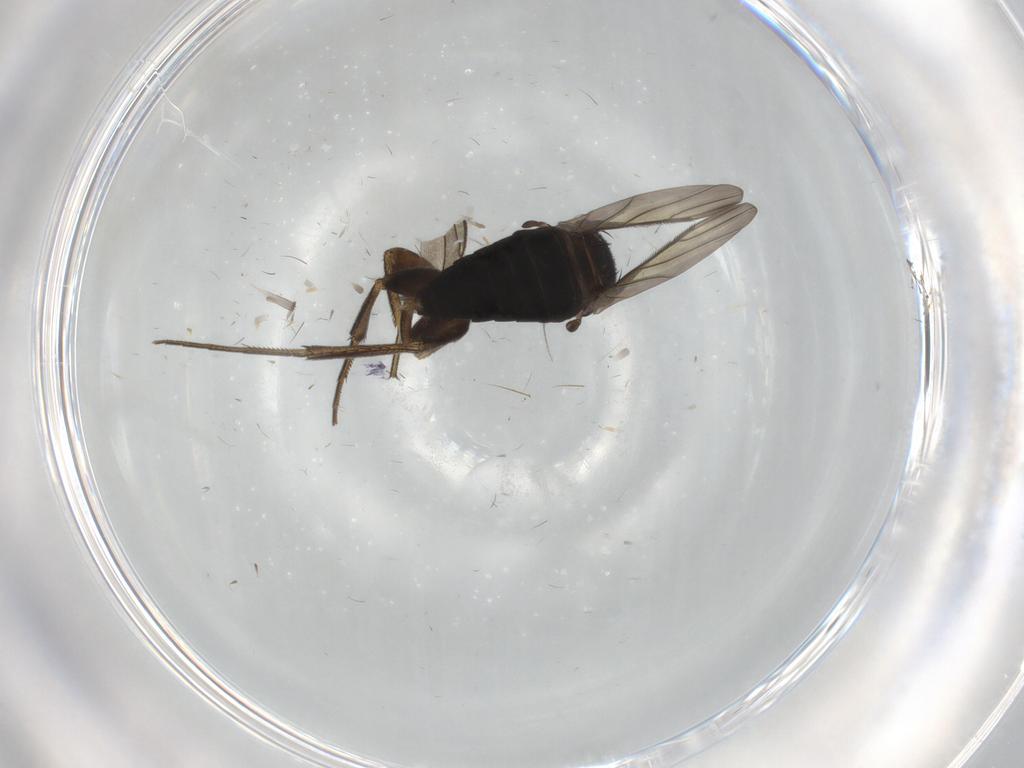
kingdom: Animalia
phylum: Arthropoda
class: Insecta
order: Diptera
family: Phoridae
